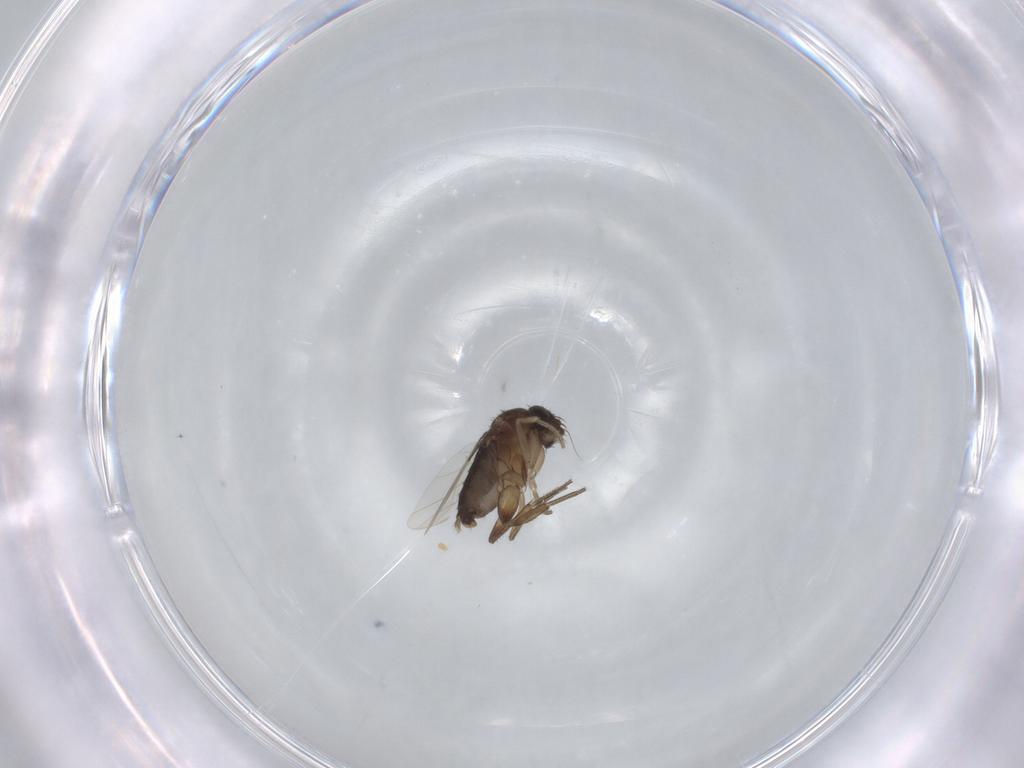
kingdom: Animalia
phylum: Arthropoda
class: Insecta
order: Diptera
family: Phoridae
